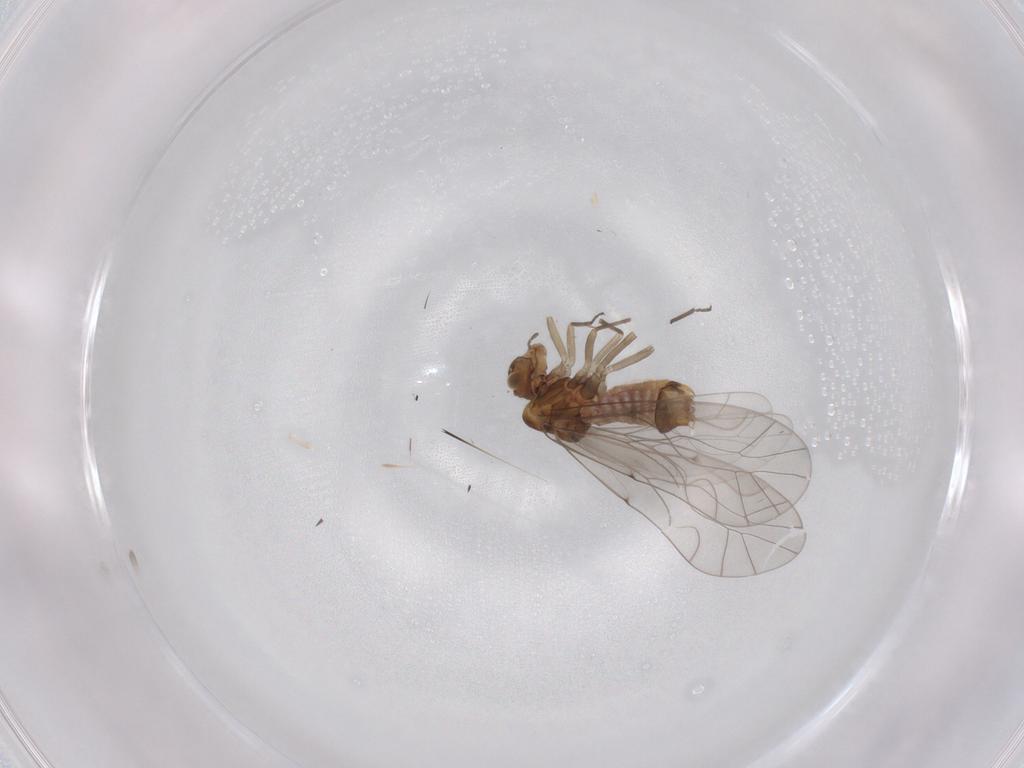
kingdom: Animalia
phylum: Arthropoda
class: Insecta
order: Psocodea
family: Lachesillidae
